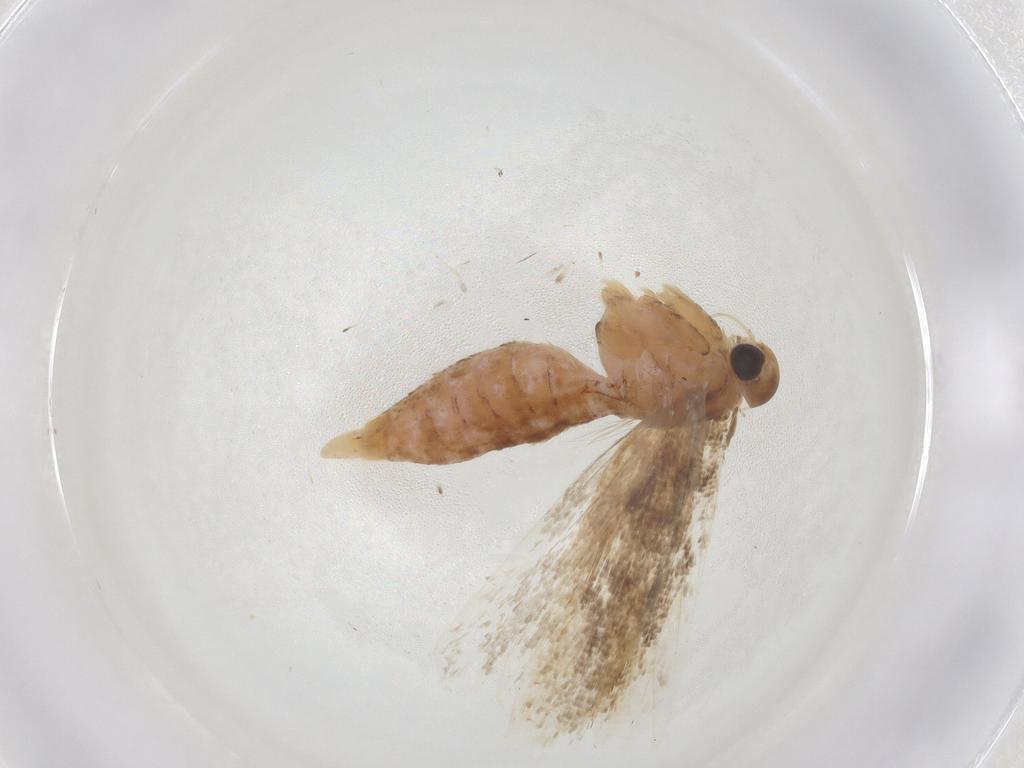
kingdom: Animalia
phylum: Arthropoda
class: Insecta
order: Lepidoptera
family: Gelechiidae
